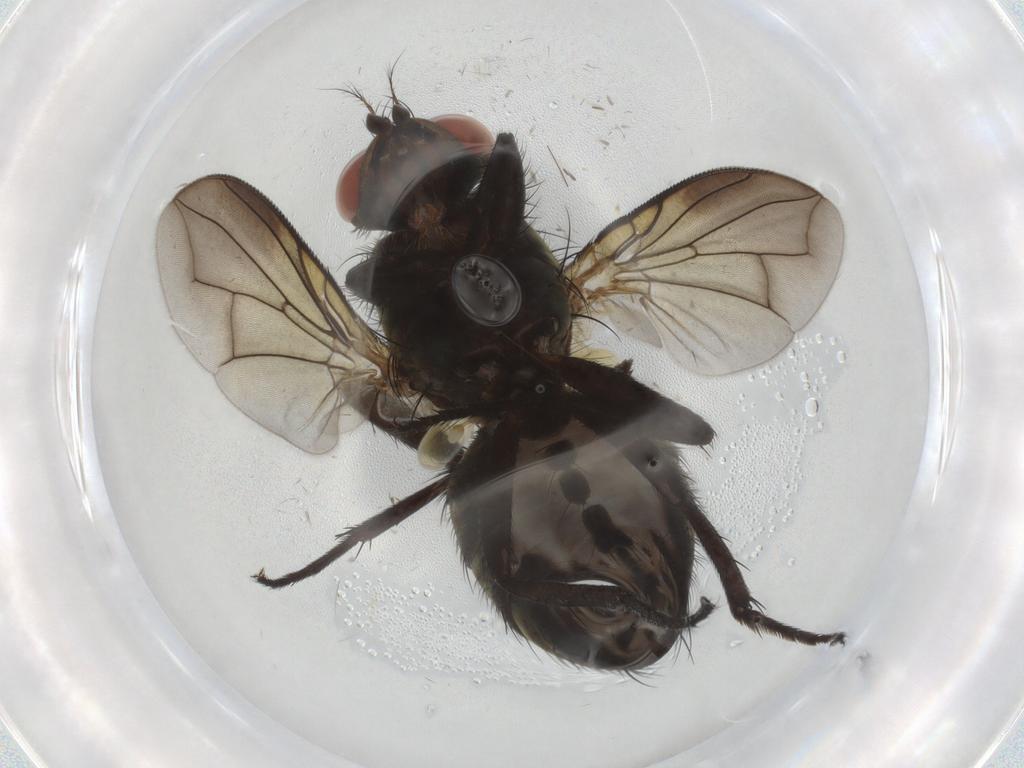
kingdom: Animalia
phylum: Arthropoda
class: Insecta
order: Diptera
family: Sarcophagidae
